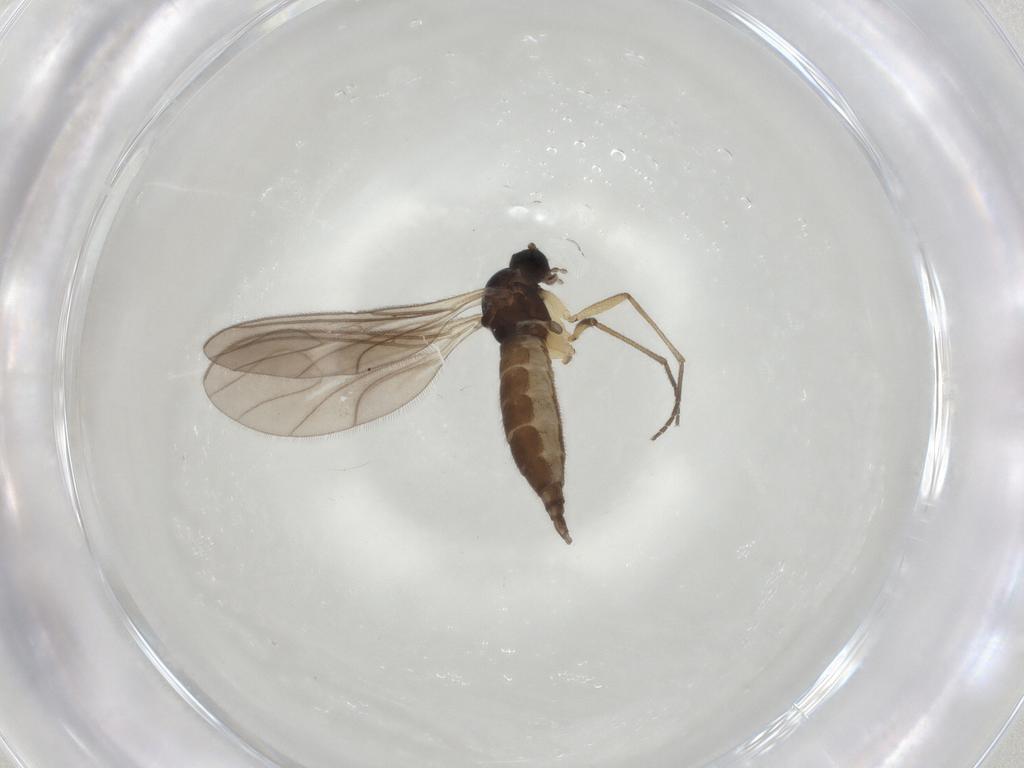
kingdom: Animalia
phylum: Arthropoda
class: Insecta
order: Diptera
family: Sciaridae
